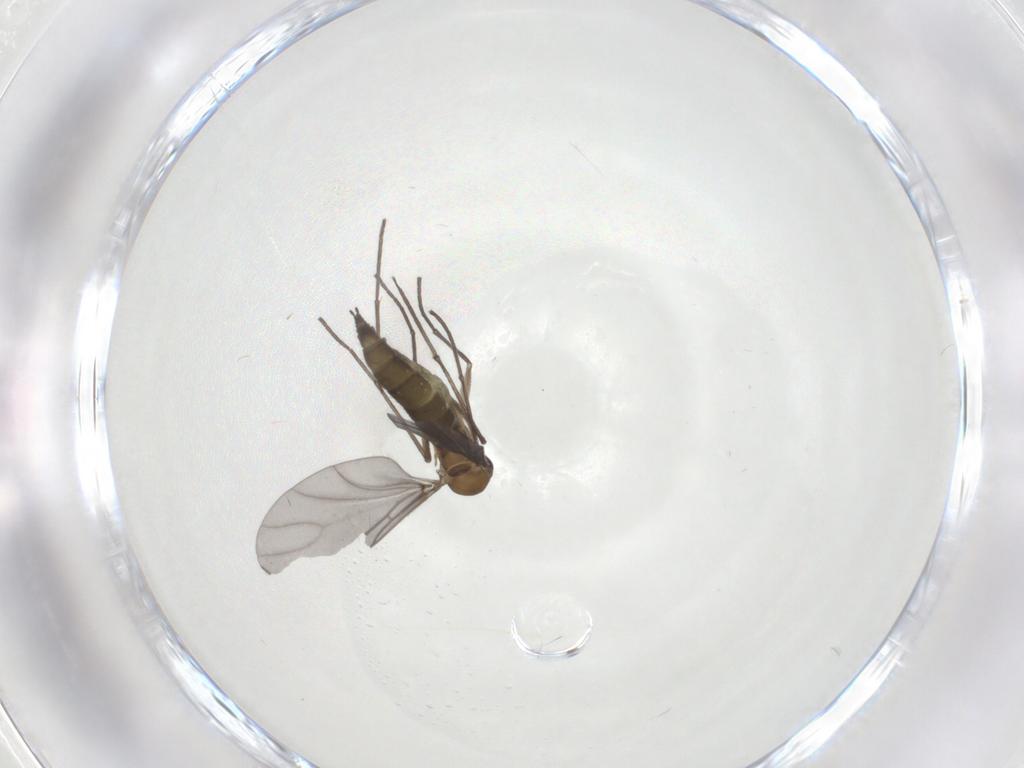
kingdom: Animalia
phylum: Arthropoda
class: Insecta
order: Diptera
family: Sciaridae
